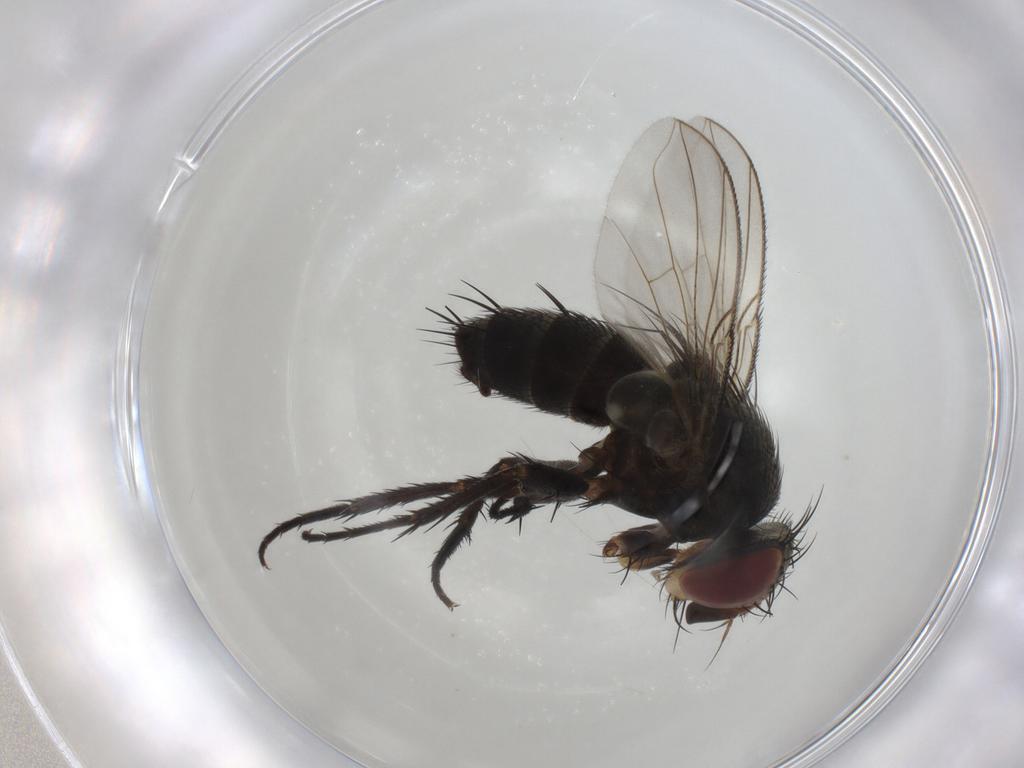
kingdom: Animalia
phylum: Arthropoda
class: Insecta
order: Diptera
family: Tachinidae
